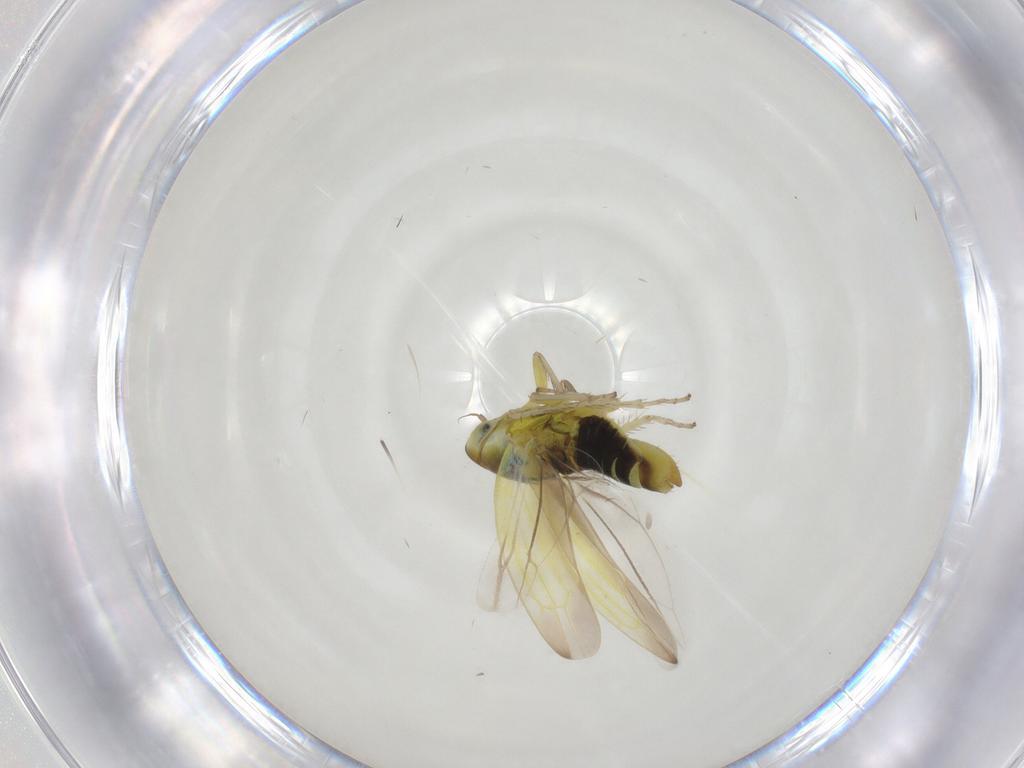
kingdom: Animalia
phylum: Arthropoda
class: Insecta
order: Hemiptera
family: Cicadellidae
